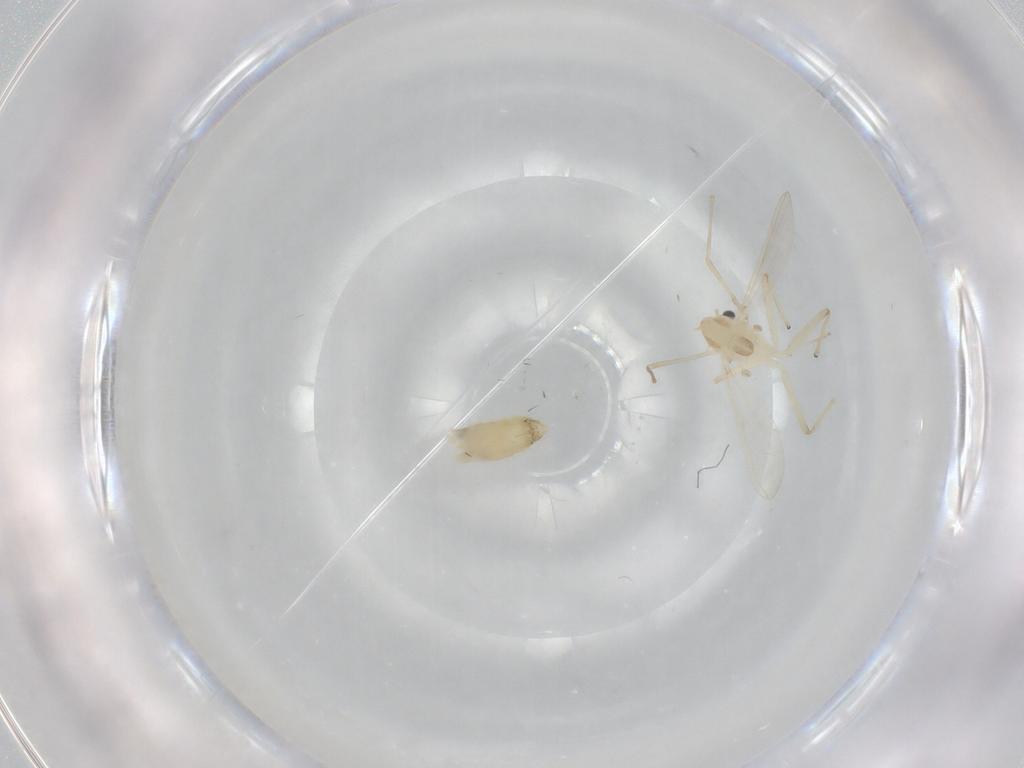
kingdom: Animalia
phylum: Arthropoda
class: Insecta
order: Diptera
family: Chironomidae
